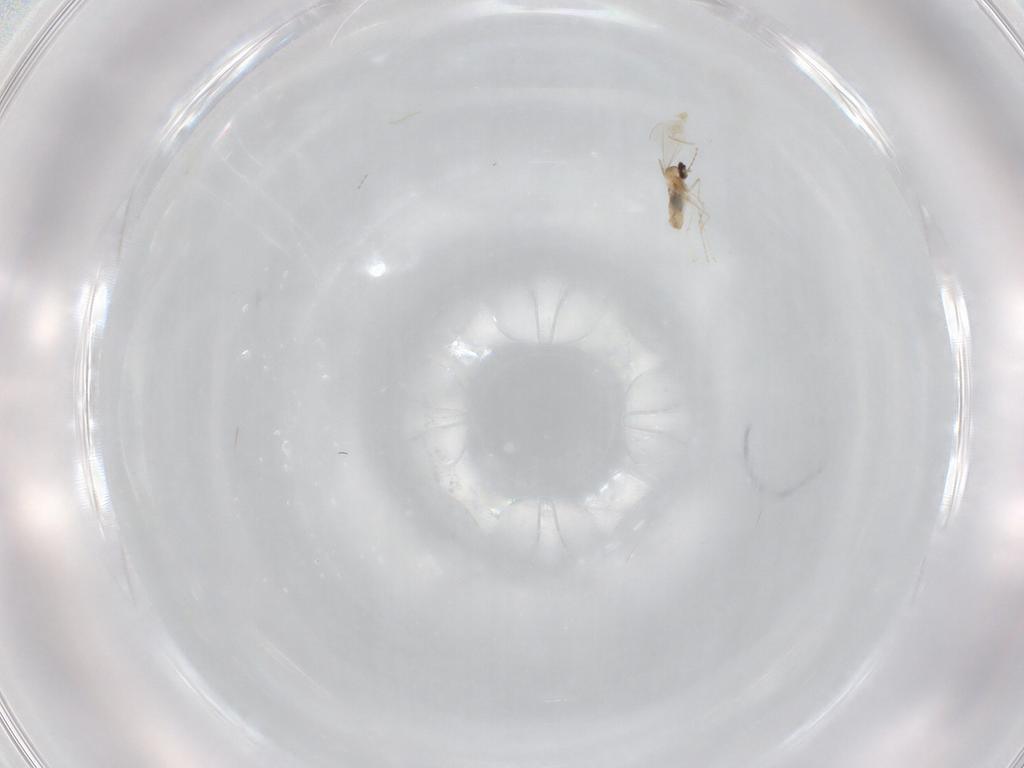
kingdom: Animalia
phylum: Arthropoda
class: Insecta
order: Diptera
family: Cecidomyiidae
